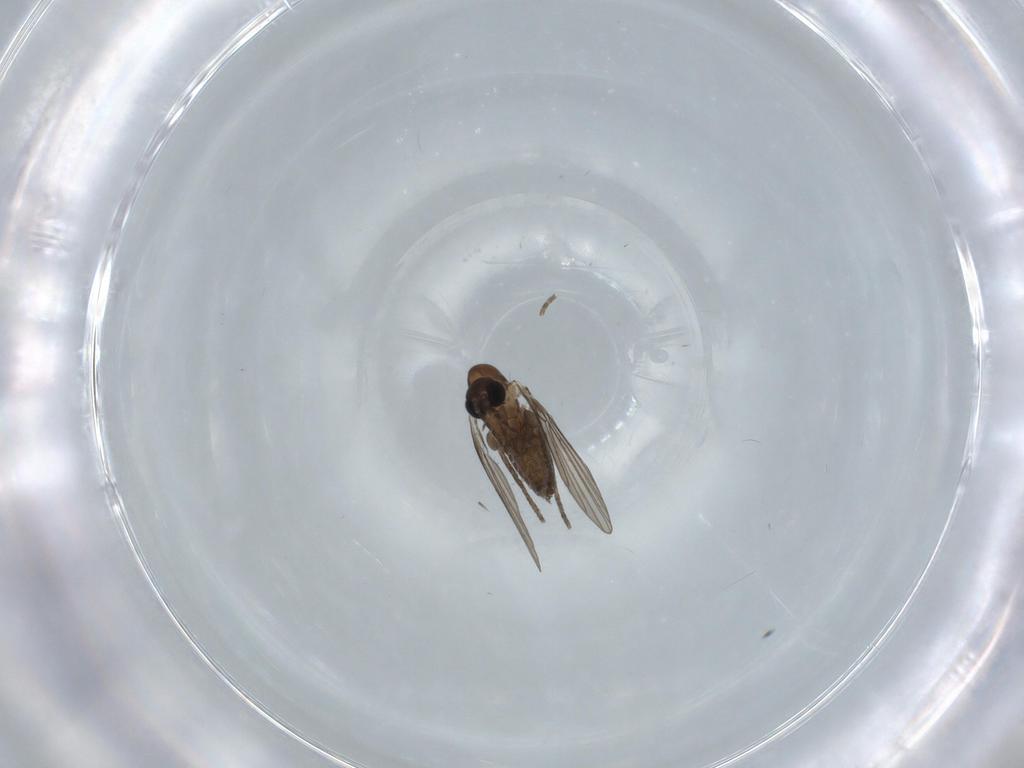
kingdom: Animalia
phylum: Arthropoda
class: Insecta
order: Diptera
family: Psychodidae
